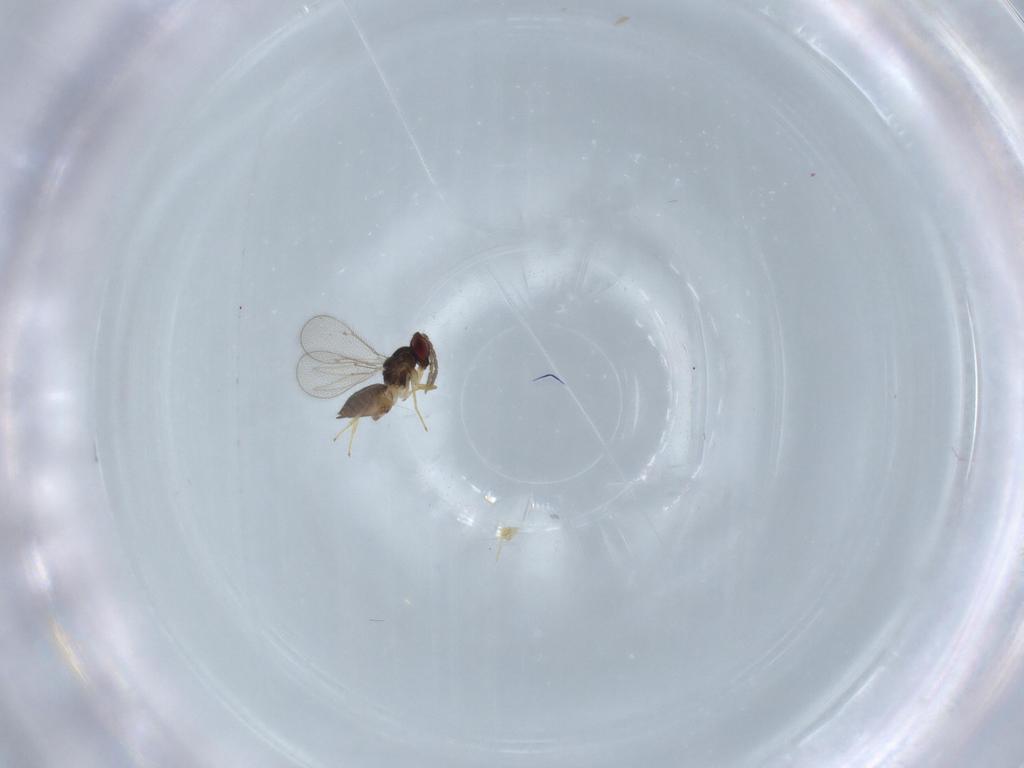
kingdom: Animalia
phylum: Arthropoda
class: Insecta
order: Hymenoptera
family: Eulophidae
